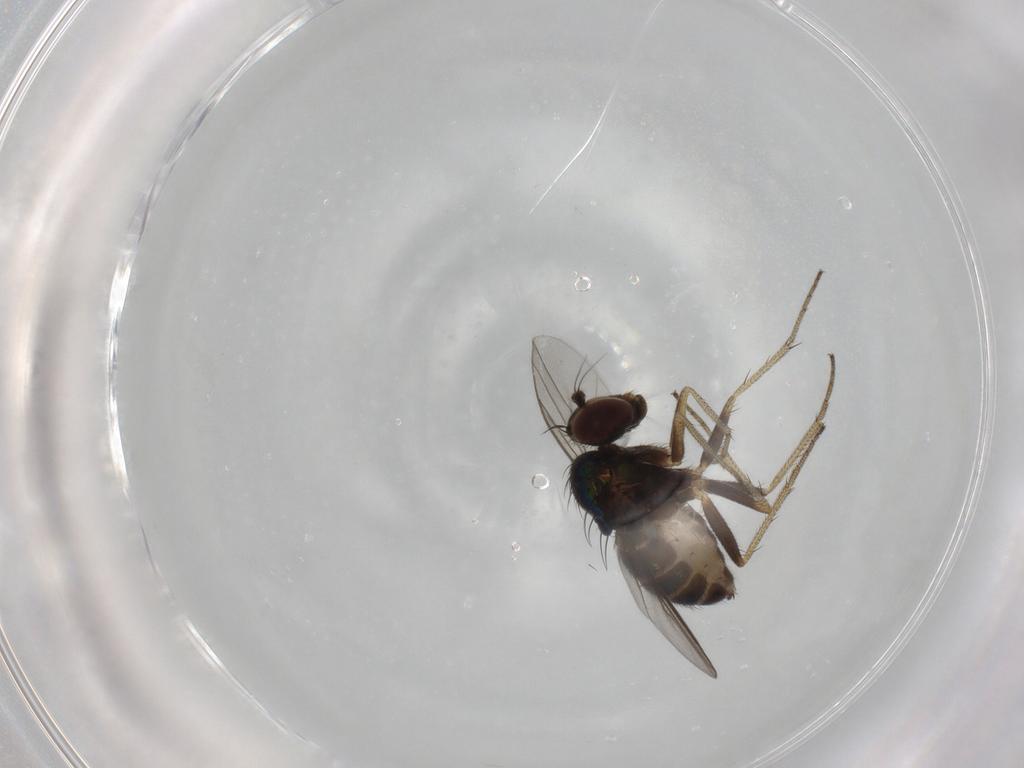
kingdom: Animalia
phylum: Arthropoda
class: Insecta
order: Diptera
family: Dolichopodidae
